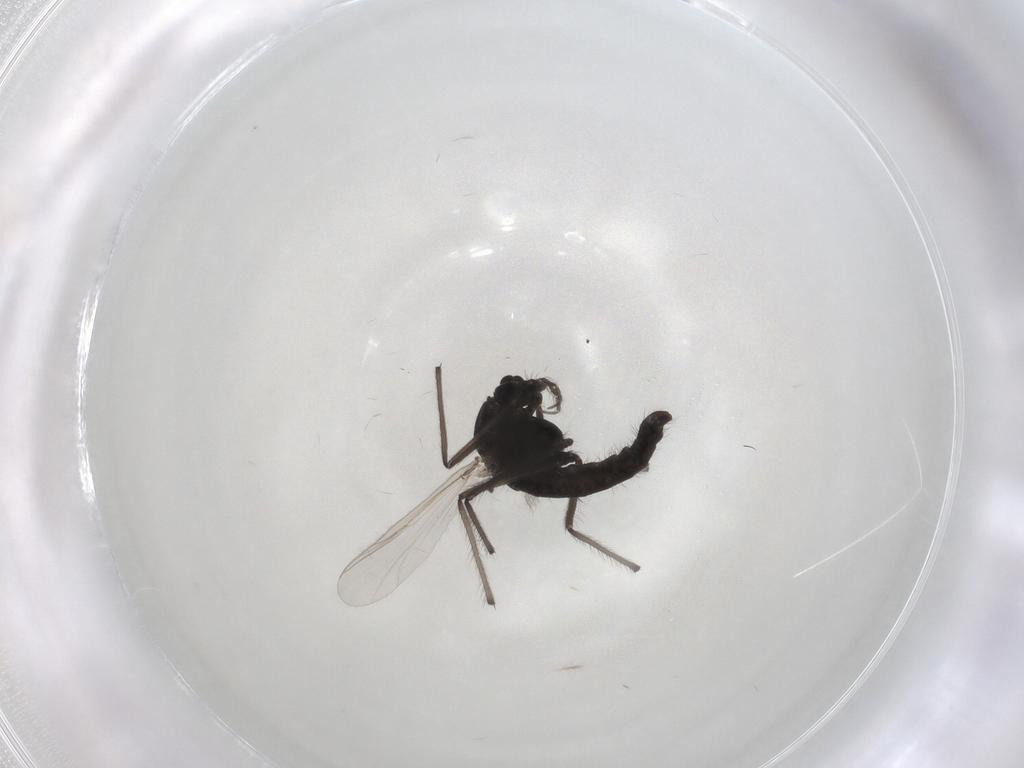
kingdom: Animalia
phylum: Arthropoda
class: Insecta
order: Diptera
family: Chironomidae
